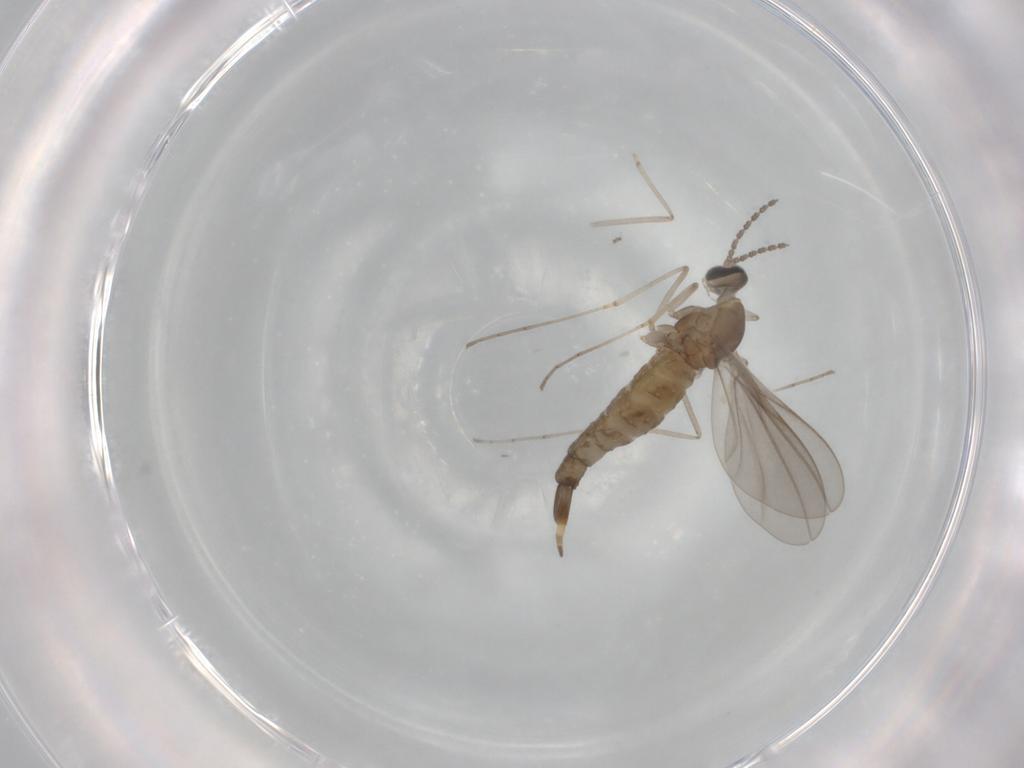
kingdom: Animalia
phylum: Arthropoda
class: Insecta
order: Diptera
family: Cecidomyiidae
